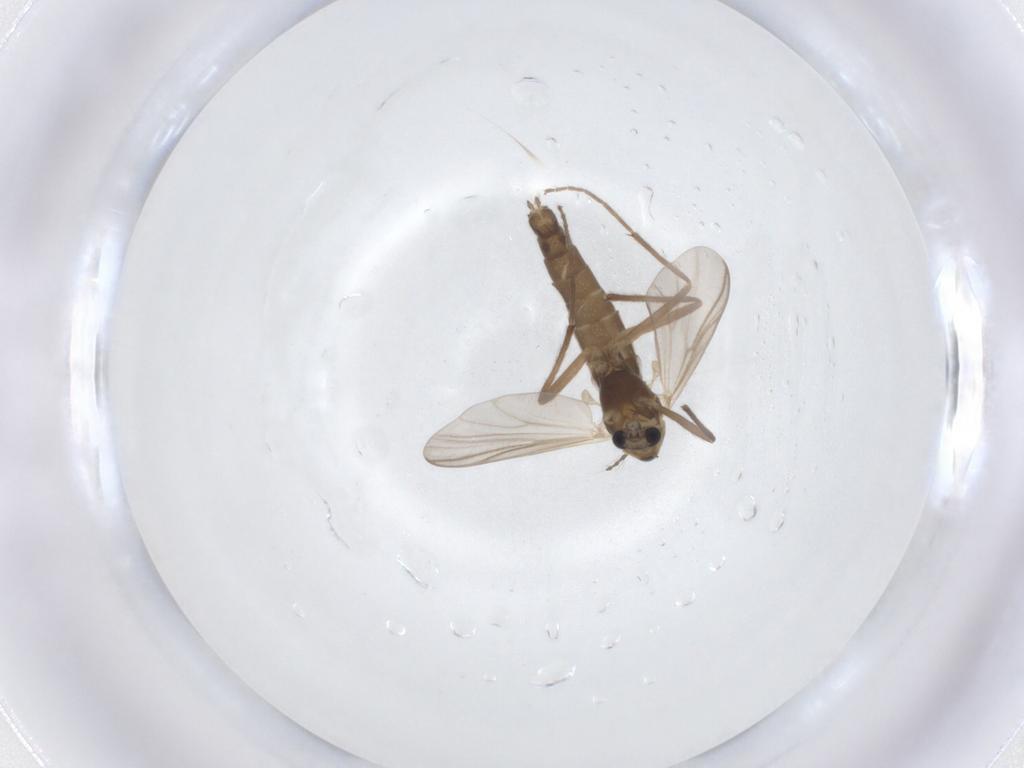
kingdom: Animalia
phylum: Arthropoda
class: Insecta
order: Diptera
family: Chironomidae
